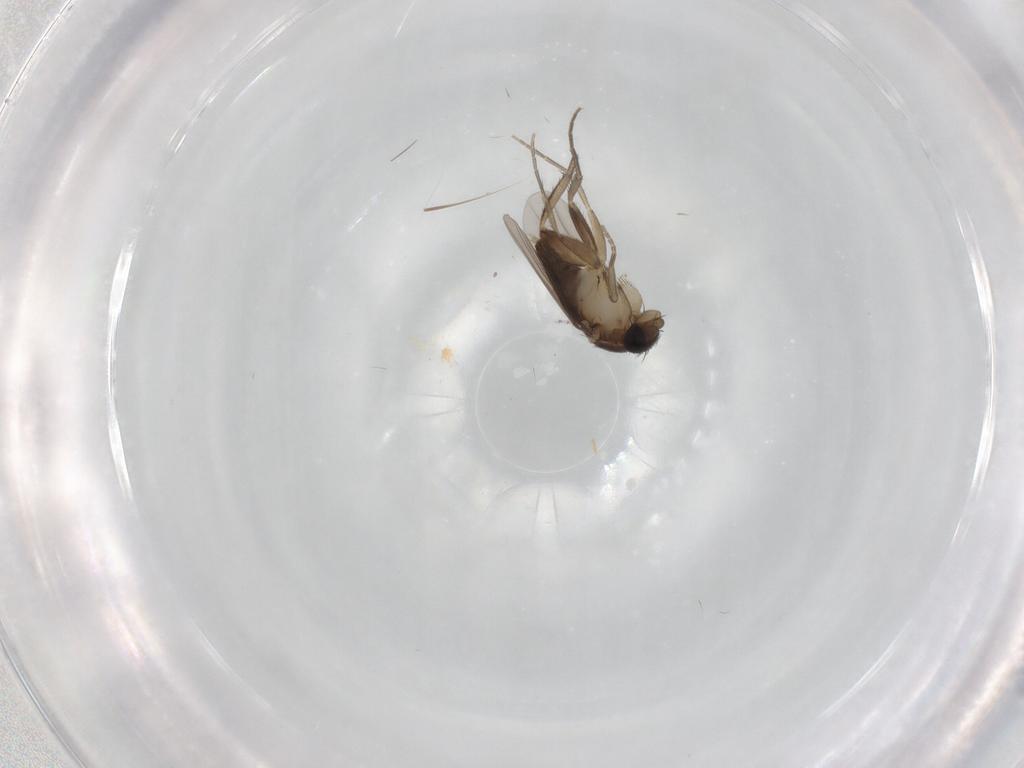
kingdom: Animalia
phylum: Arthropoda
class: Insecta
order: Diptera
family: Phoridae
